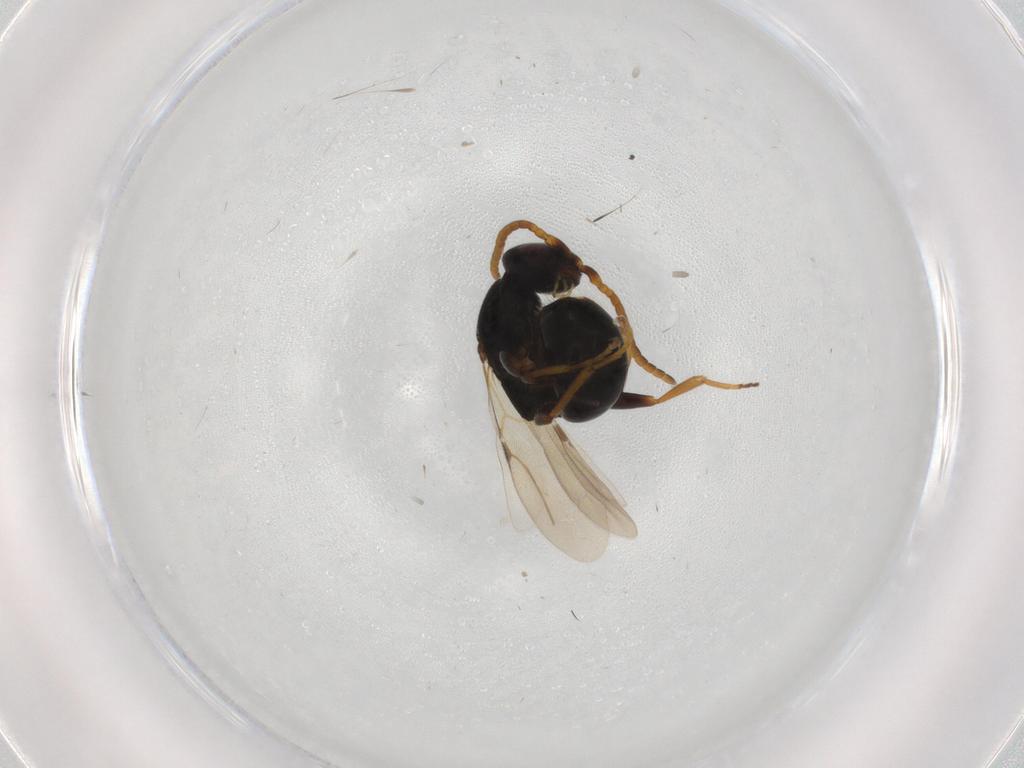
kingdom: Animalia
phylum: Arthropoda
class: Insecta
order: Hymenoptera
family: Bethylidae
